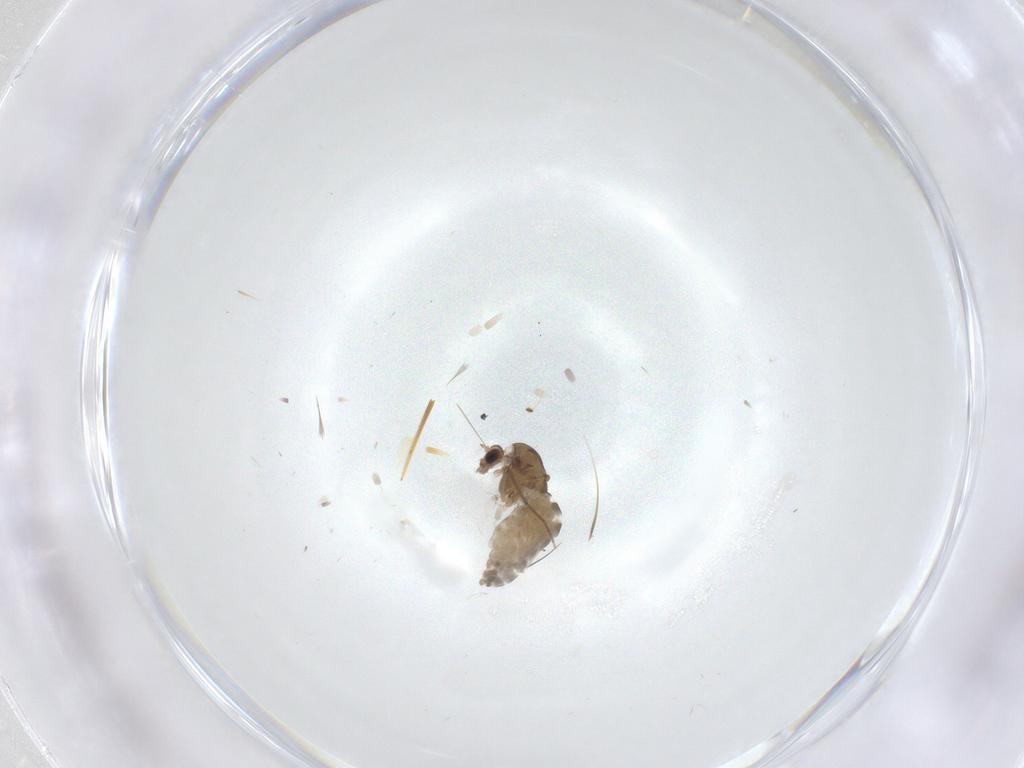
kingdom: Animalia
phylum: Arthropoda
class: Insecta
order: Diptera
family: Chironomidae
